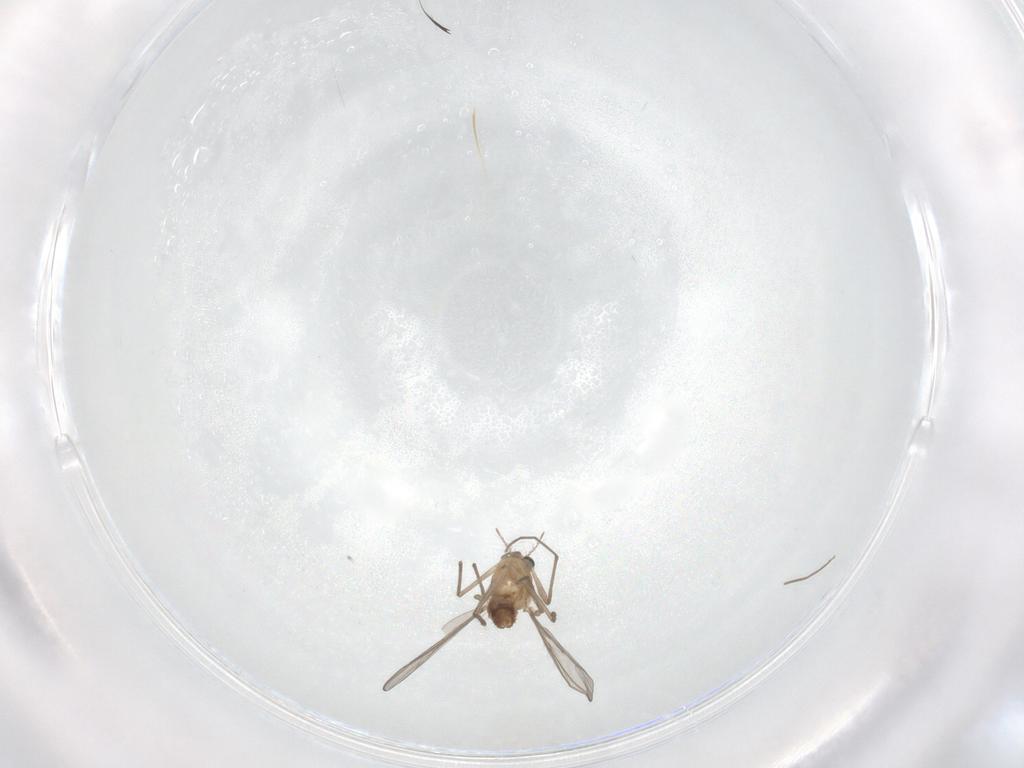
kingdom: Animalia
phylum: Arthropoda
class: Insecta
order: Diptera
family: Chironomidae
